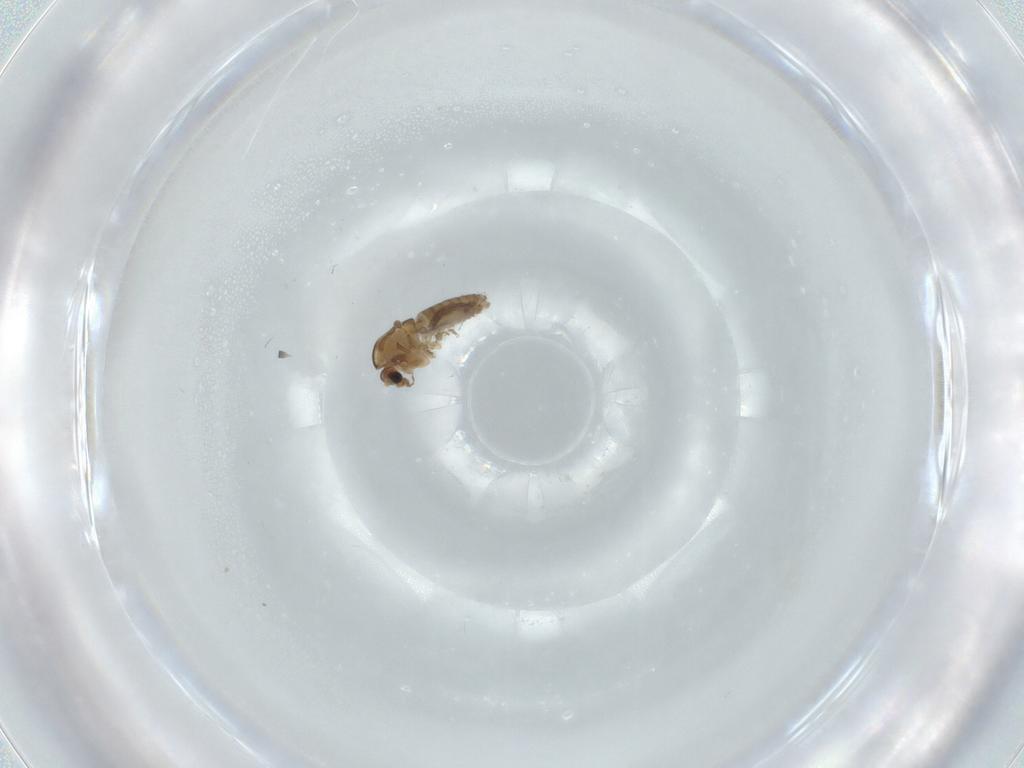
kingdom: Animalia
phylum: Arthropoda
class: Insecta
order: Diptera
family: Chironomidae
